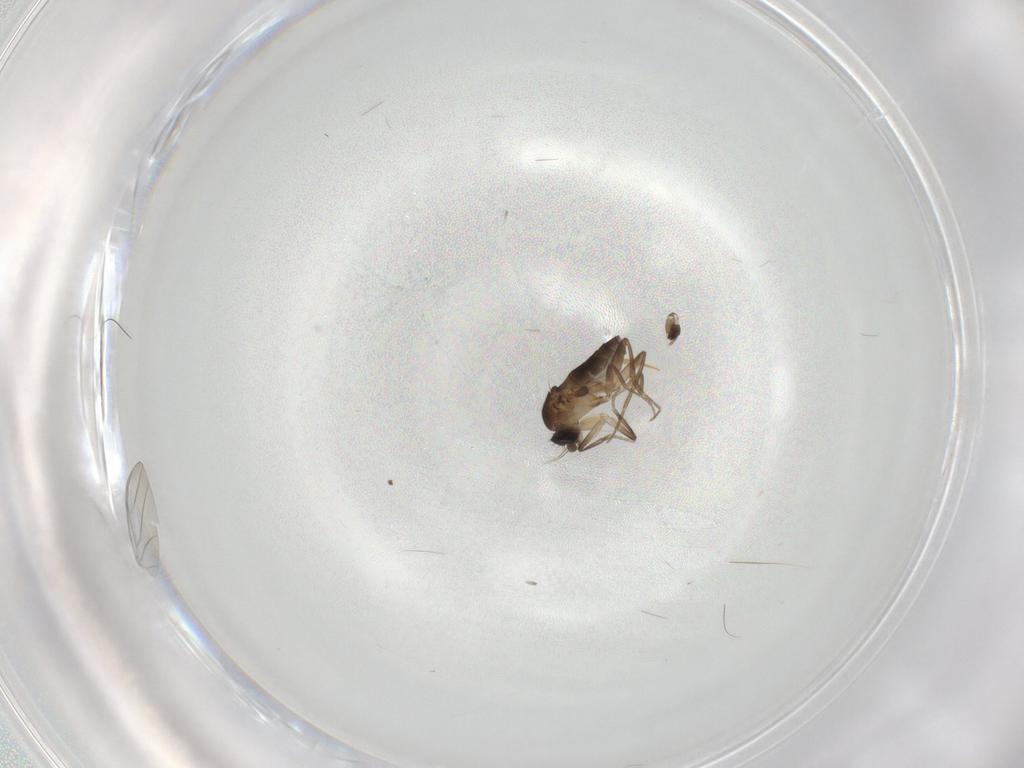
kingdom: Animalia
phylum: Arthropoda
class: Insecta
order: Diptera
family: Phoridae
